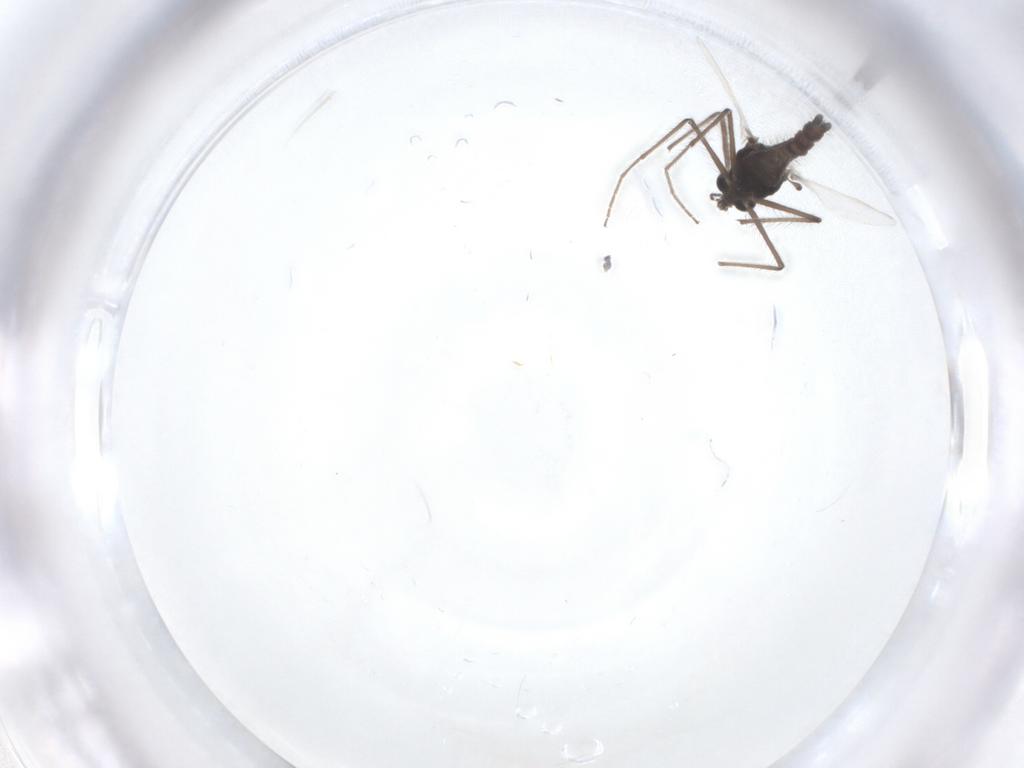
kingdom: Animalia
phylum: Arthropoda
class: Insecta
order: Diptera
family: Chironomidae
